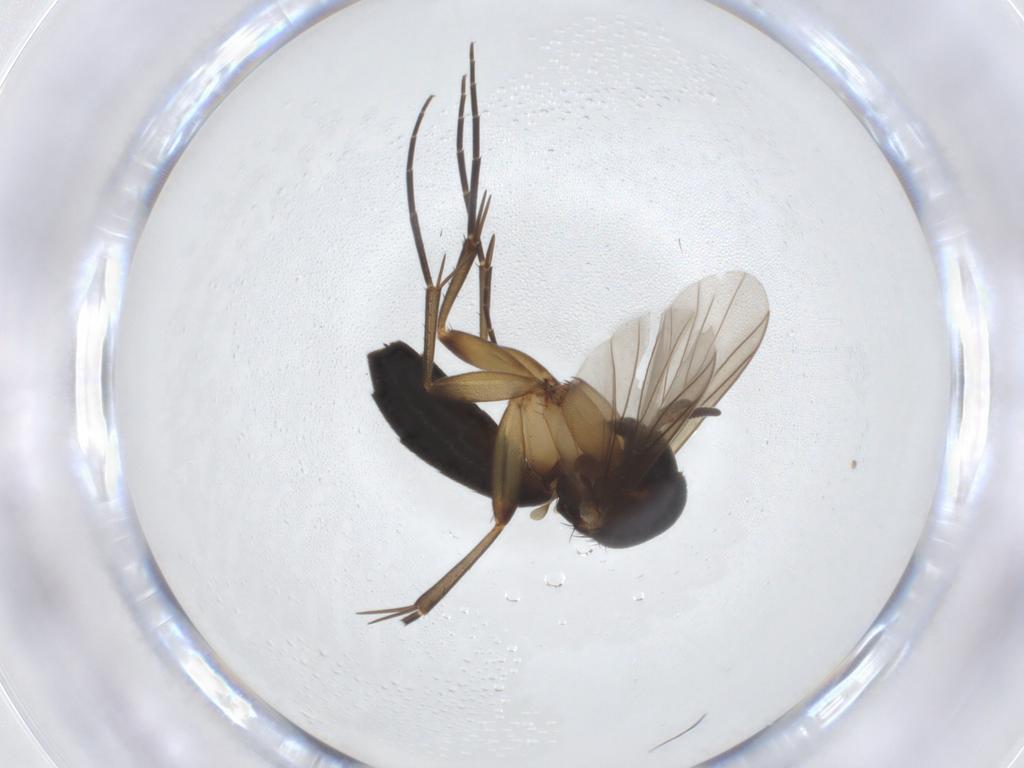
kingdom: Animalia
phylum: Arthropoda
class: Insecta
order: Diptera
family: Mycetophilidae
